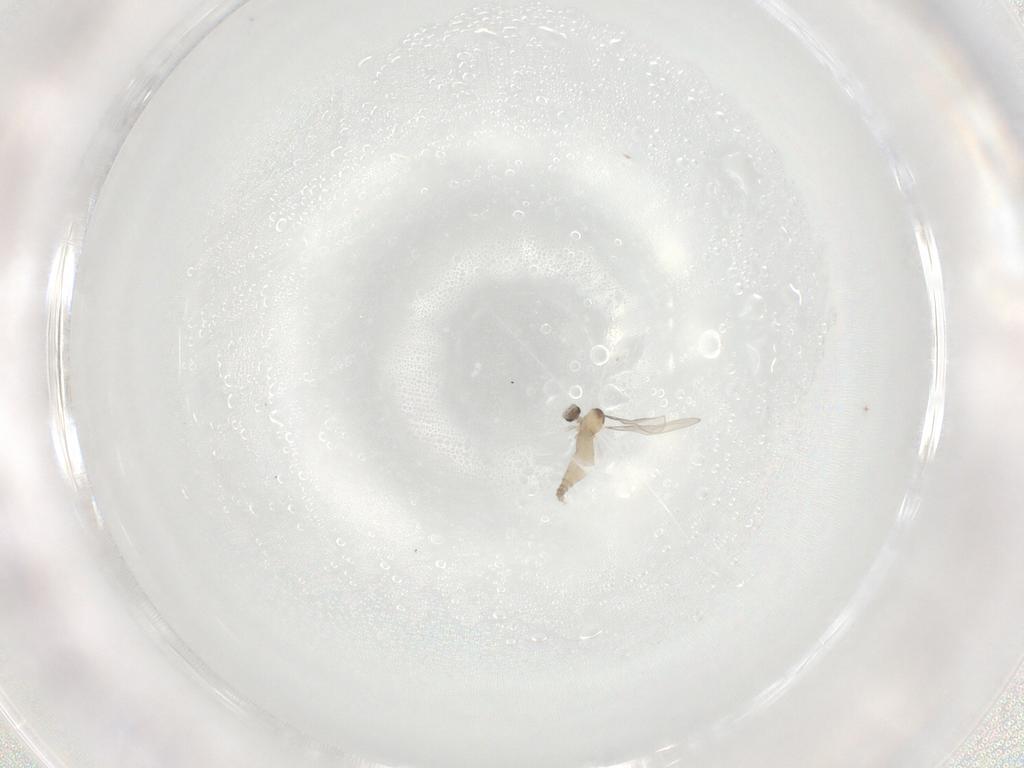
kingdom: Animalia
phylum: Arthropoda
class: Insecta
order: Diptera
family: Cecidomyiidae
